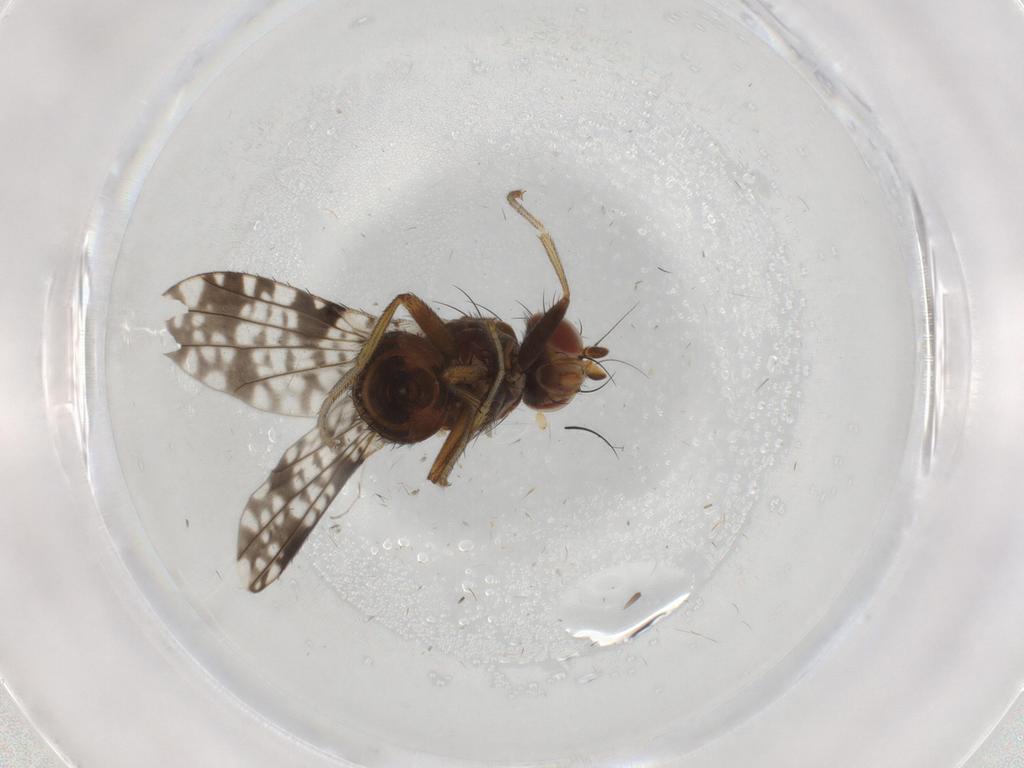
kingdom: Animalia
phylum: Arthropoda
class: Insecta
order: Diptera
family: Tephritidae
